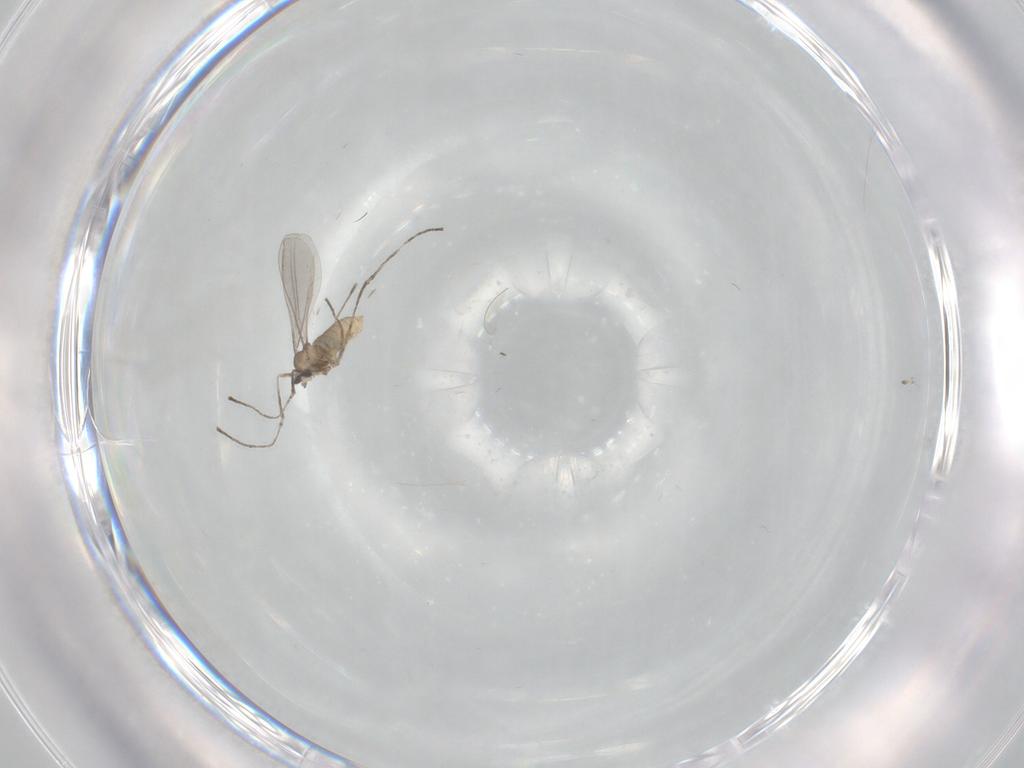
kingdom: Animalia
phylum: Arthropoda
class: Insecta
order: Diptera
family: Cecidomyiidae
